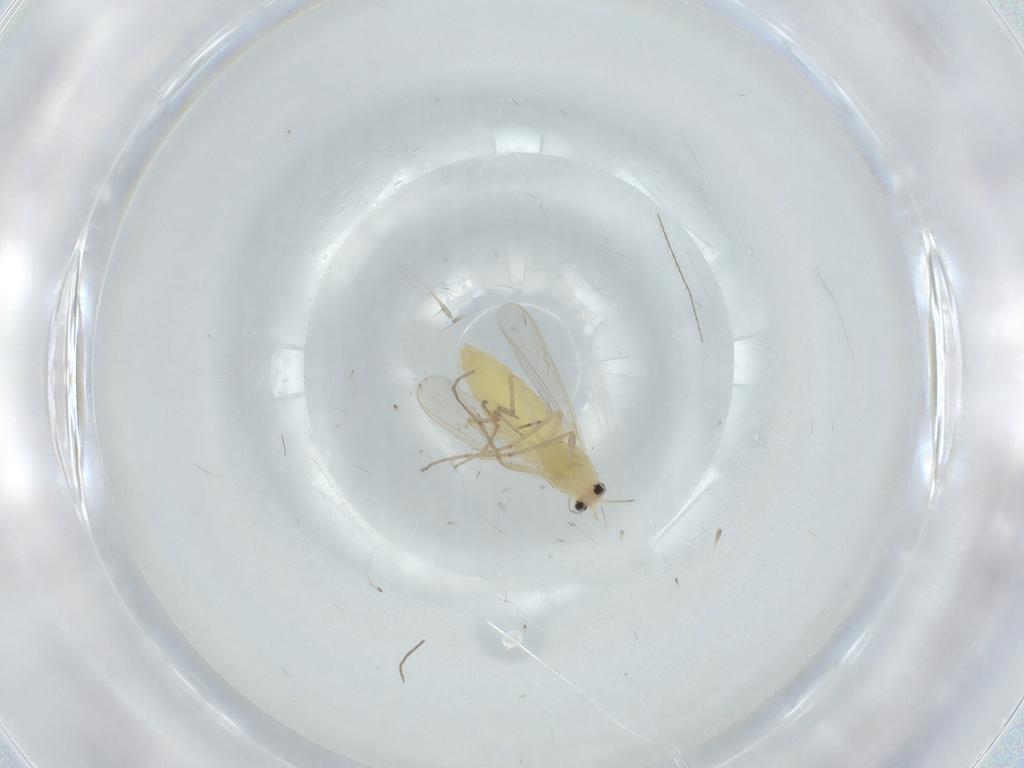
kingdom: Animalia
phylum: Arthropoda
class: Insecta
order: Diptera
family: Chironomidae
